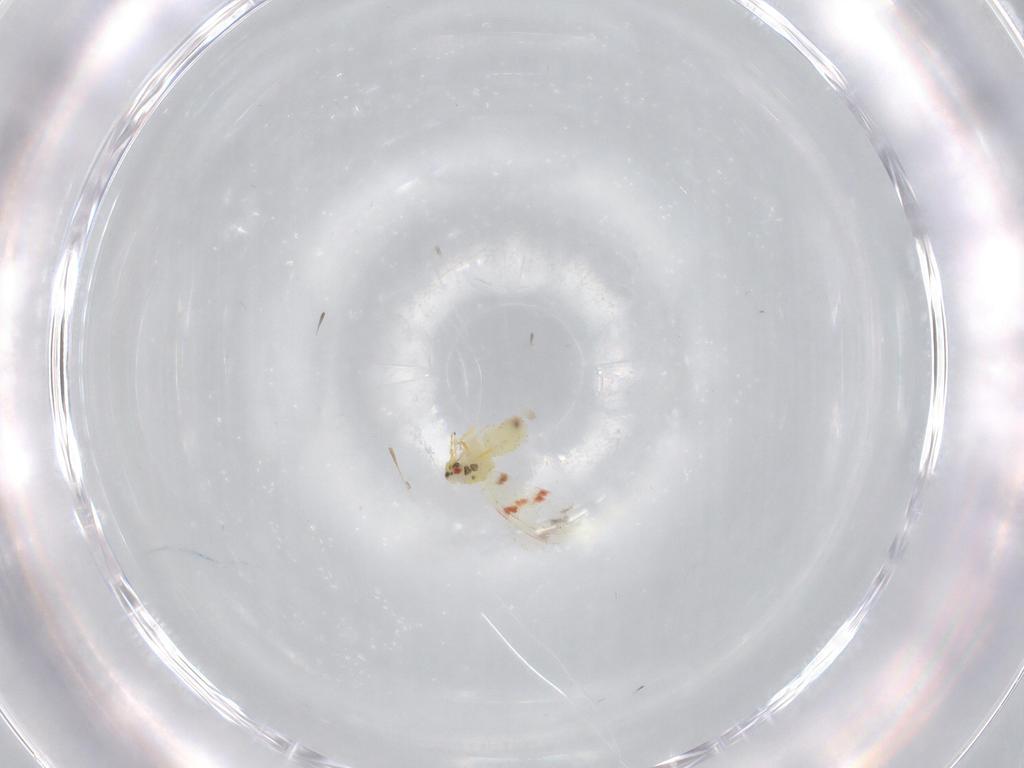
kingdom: Animalia
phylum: Arthropoda
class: Insecta
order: Hemiptera
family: Aleyrodidae
